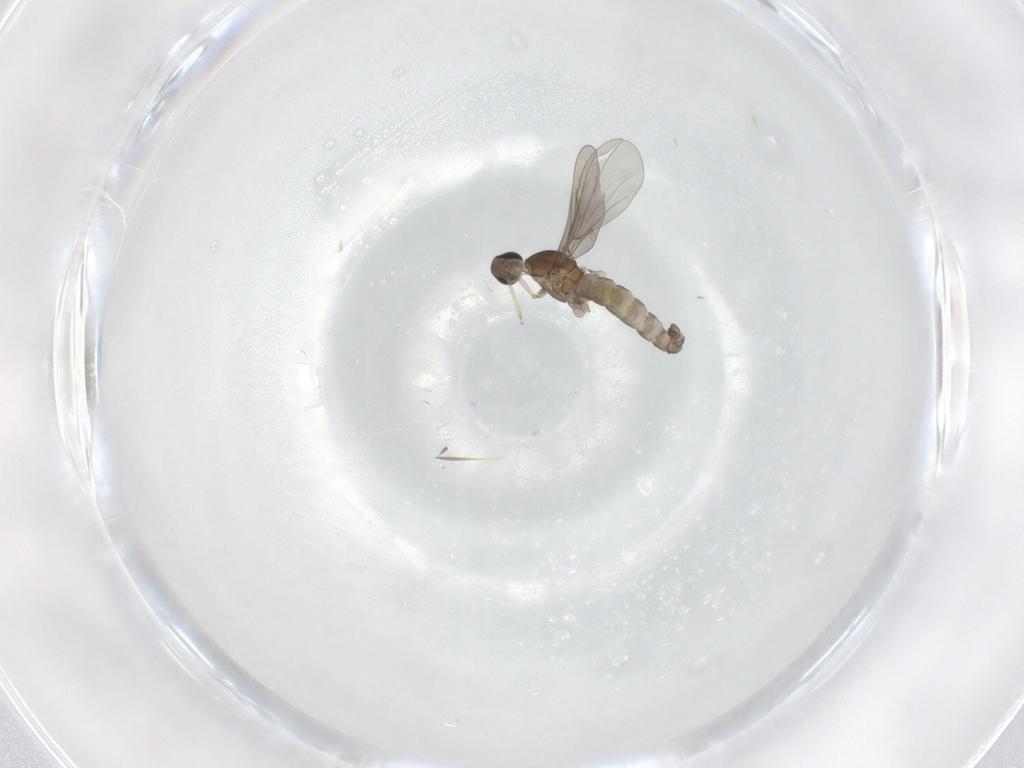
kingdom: Animalia
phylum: Arthropoda
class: Insecta
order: Diptera
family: Cecidomyiidae
